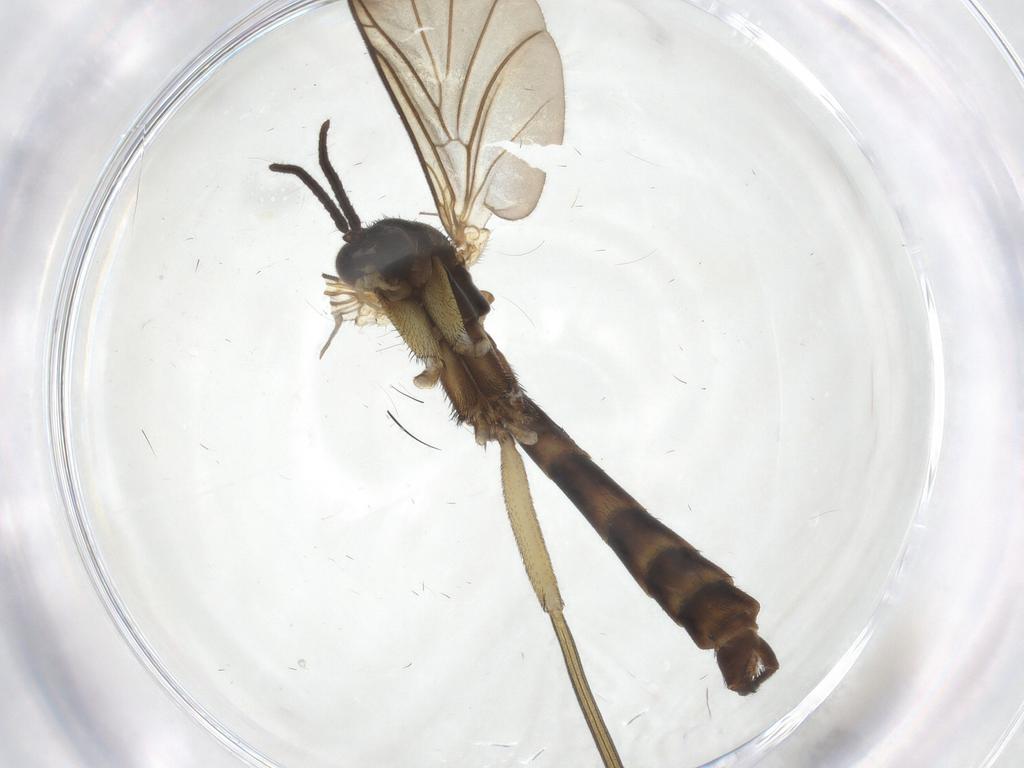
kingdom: Animalia
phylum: Arthropoda
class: Insecta
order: Diptera
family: Keroplatidae
